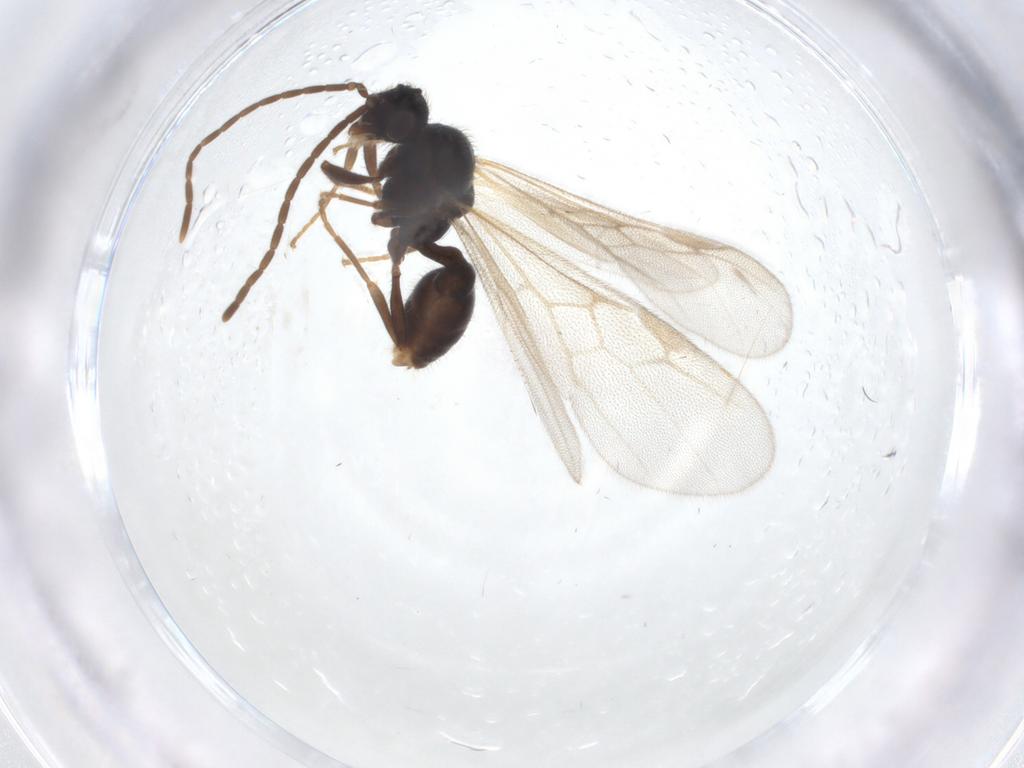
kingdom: Animalia
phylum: Arthropoda
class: Insecta
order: Hymenoptera
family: Formicidae
